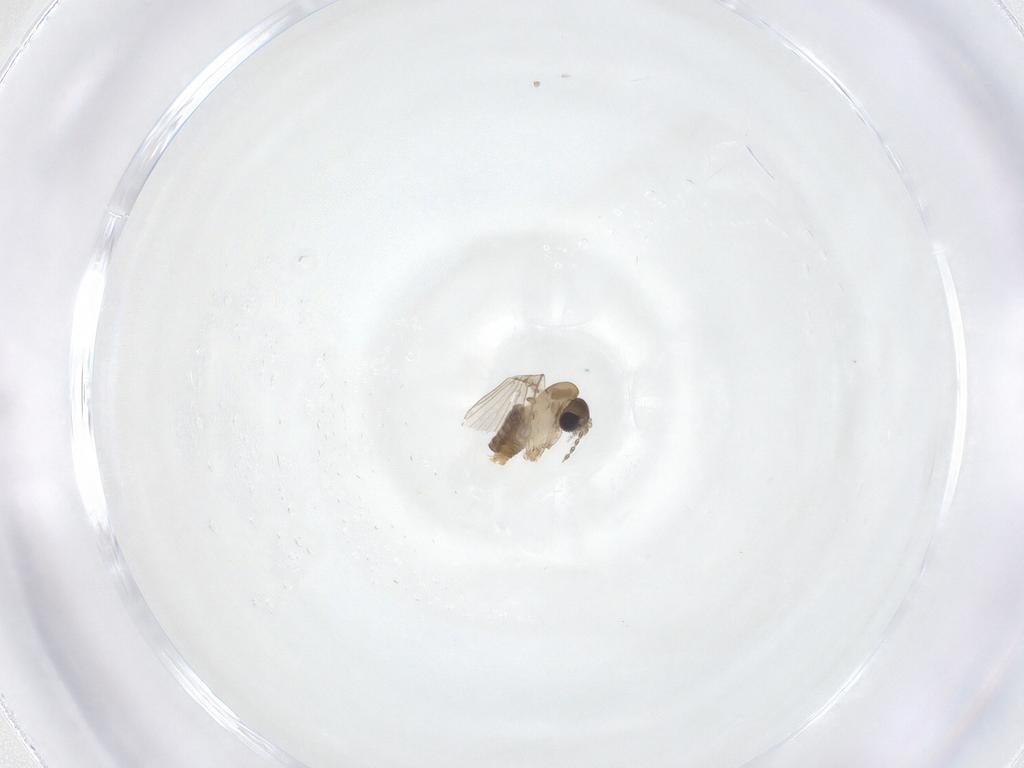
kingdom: Animalia
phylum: Arthropoda
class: Insecta
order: Diptera
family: Psychodidae
